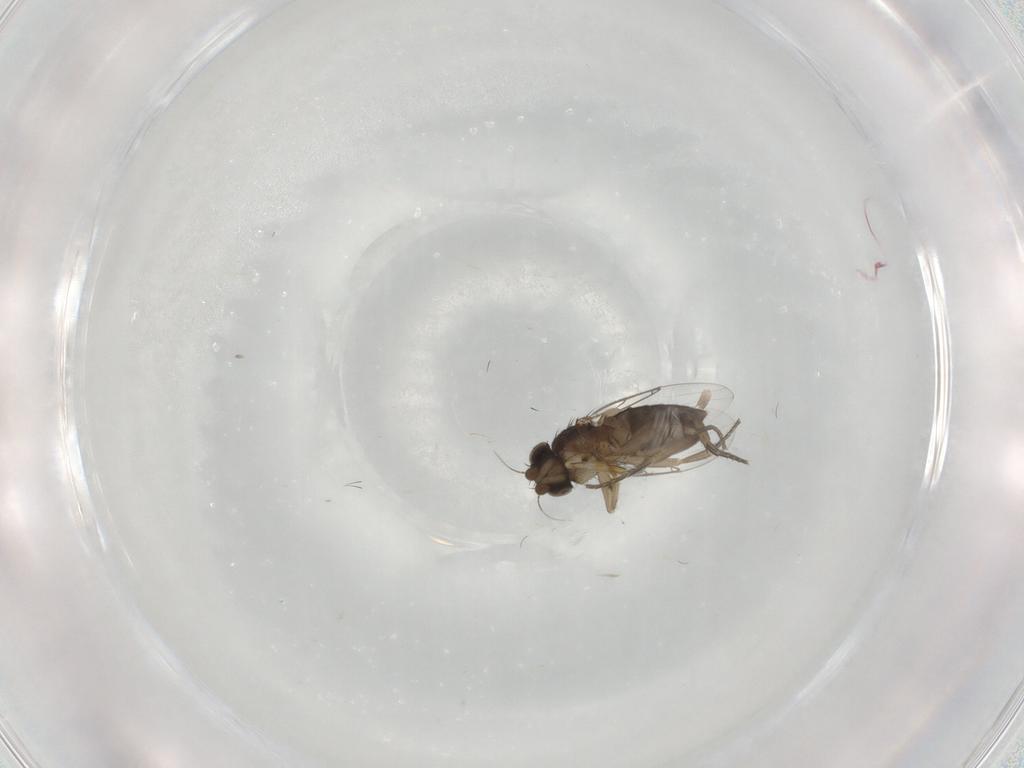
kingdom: Animalia
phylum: Arthropoda
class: Insecta
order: Diptera
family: Phoridae
